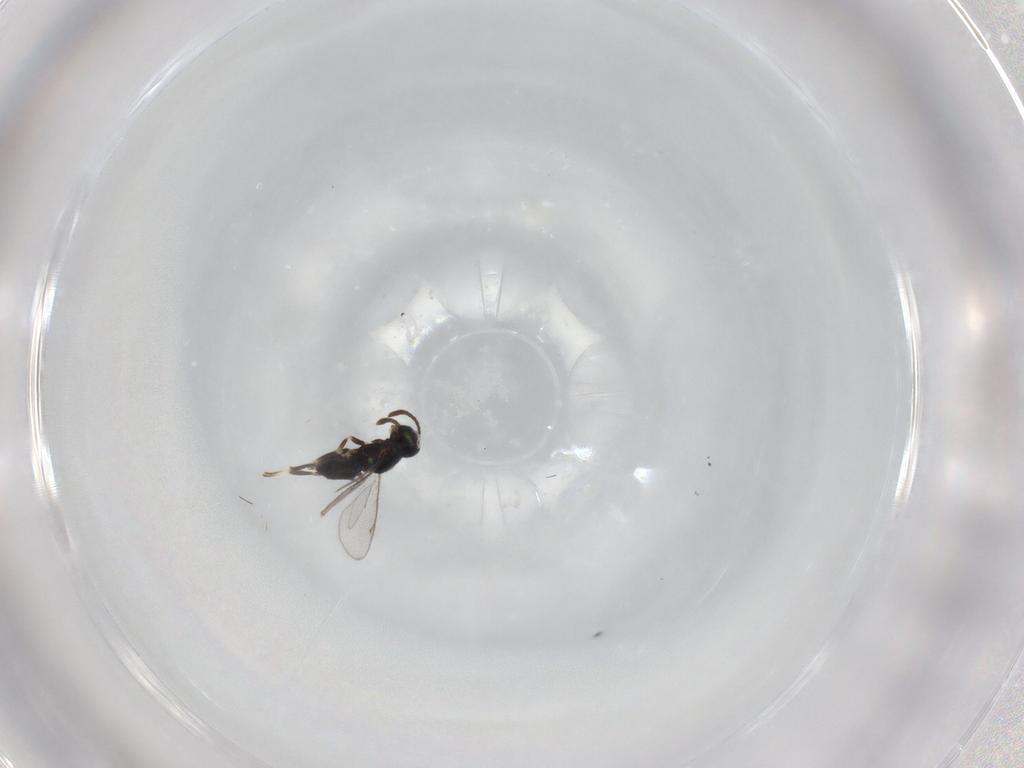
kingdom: Animalia
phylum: Arthropoda
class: Insecta
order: Hymenoptera
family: Eupelmidae
